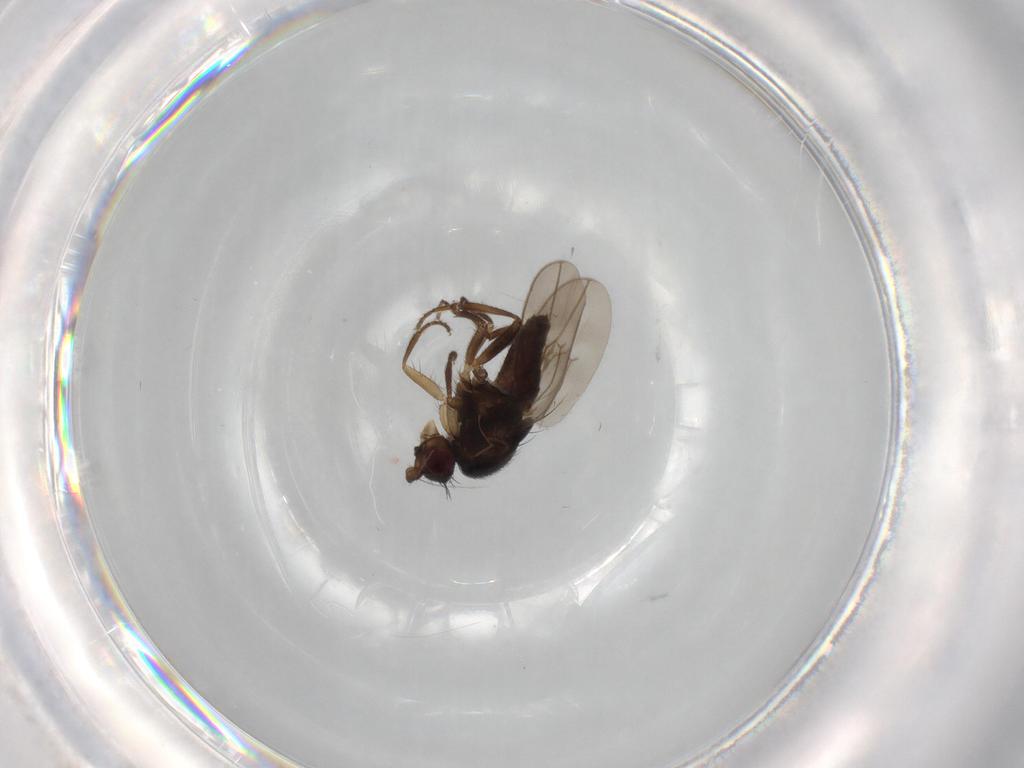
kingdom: Animalia
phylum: Arthropoda
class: Insecta
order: Diptera
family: Sphaeroceridae
